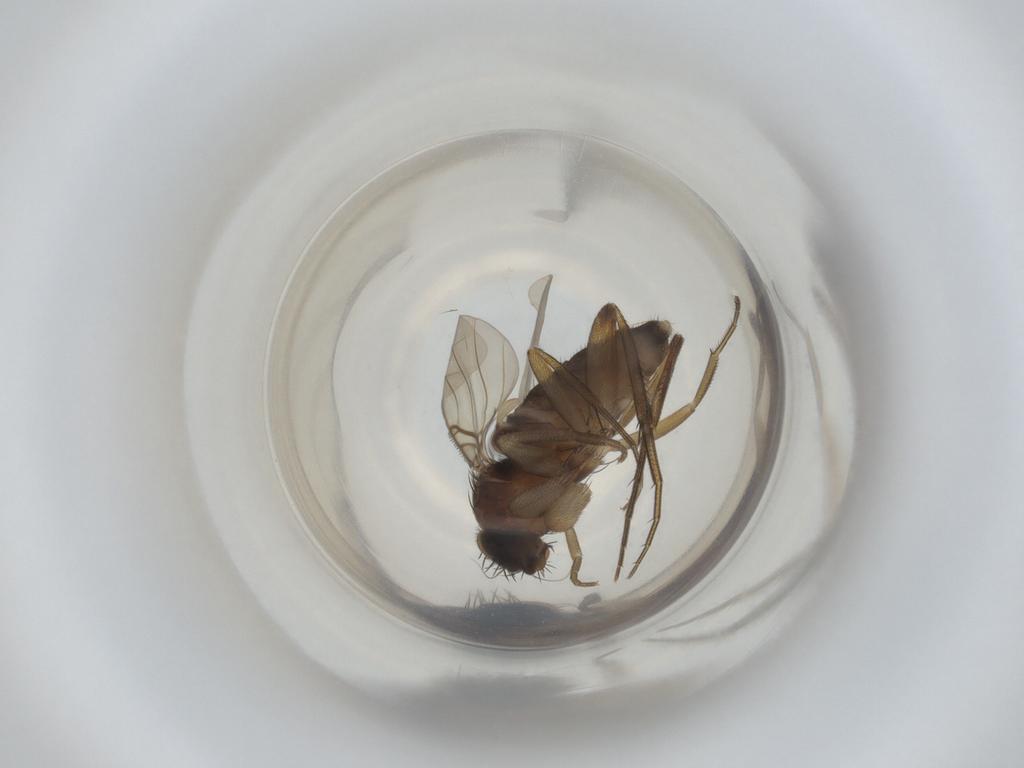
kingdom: Animalia
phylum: Arthropoda
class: Insecta
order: Diptera
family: Phoridae
